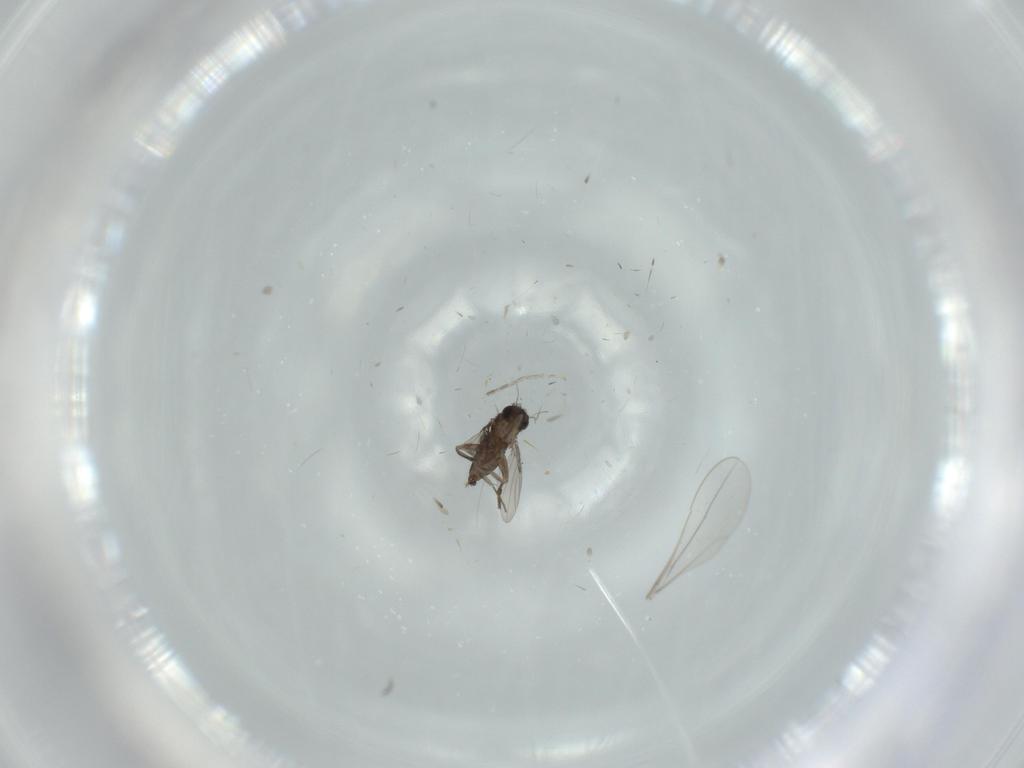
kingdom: Animalia
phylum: Arthropoda
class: Insecta
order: Diptera
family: Phoridae
